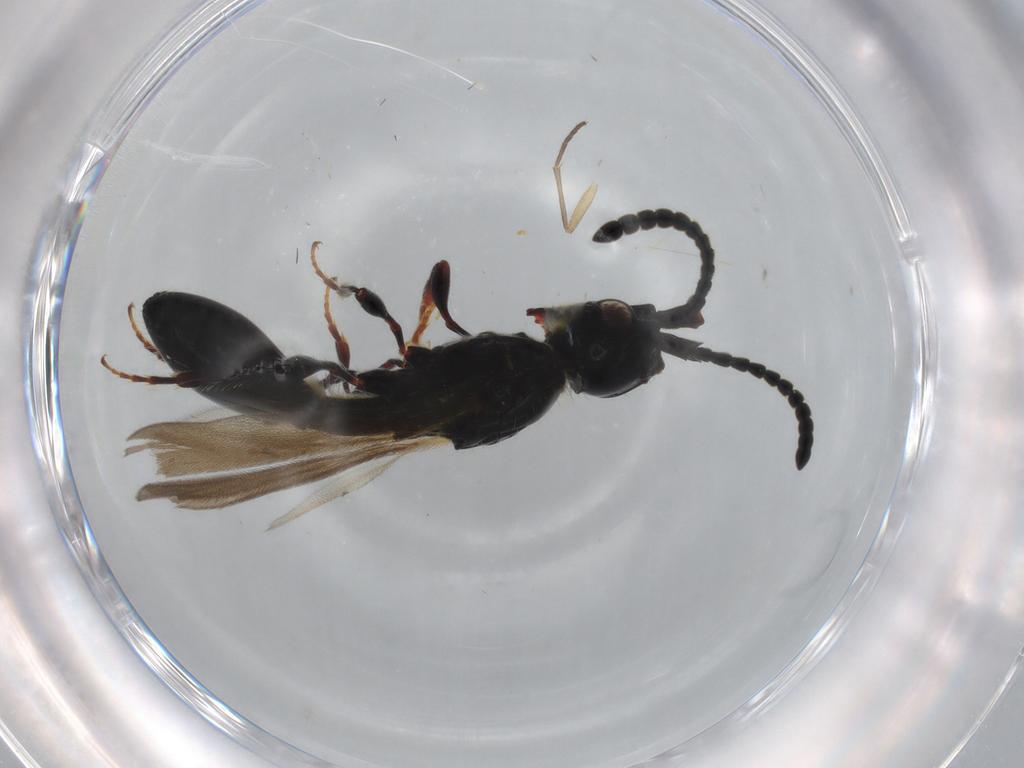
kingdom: Animalia
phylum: Arthropoda
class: Insecta
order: Hymenoptera
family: Diapriidae
